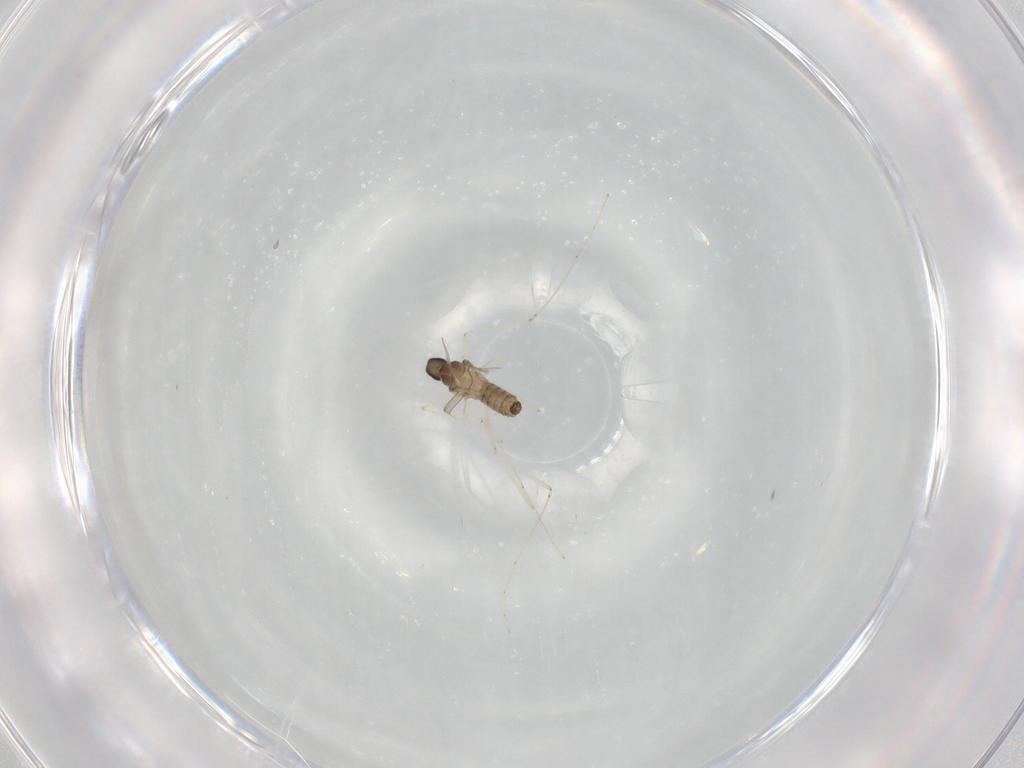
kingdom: Animalia
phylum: Arthropoda
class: Insecta
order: Diptera
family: Cecidomyiidae
